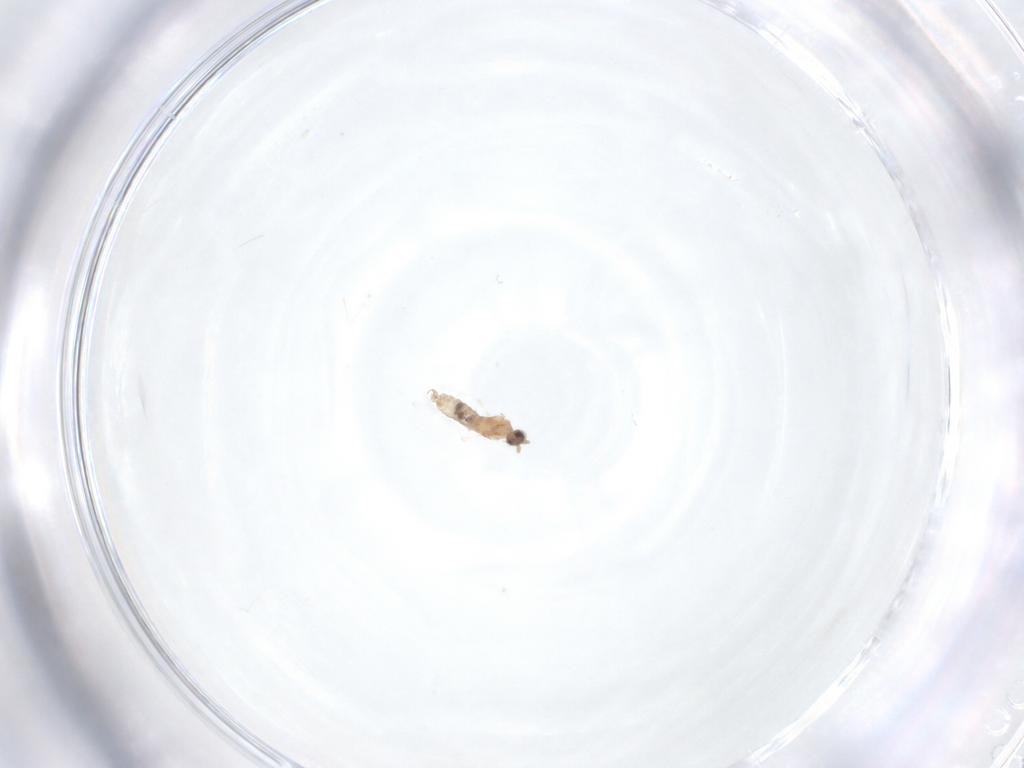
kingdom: Animalia
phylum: Arthropoda
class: Insecta
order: Diptera
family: Cecidomyiidae
